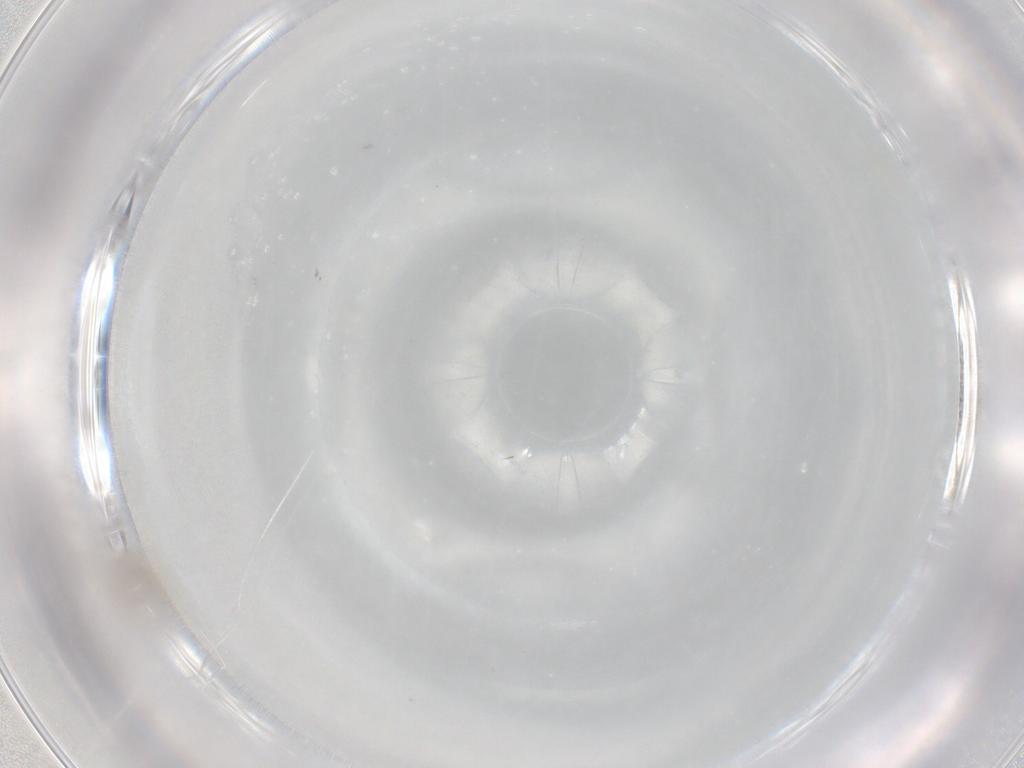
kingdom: Animalia
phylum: Arthropoda
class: Insecta
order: Diptera
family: Cecidomyiidae
